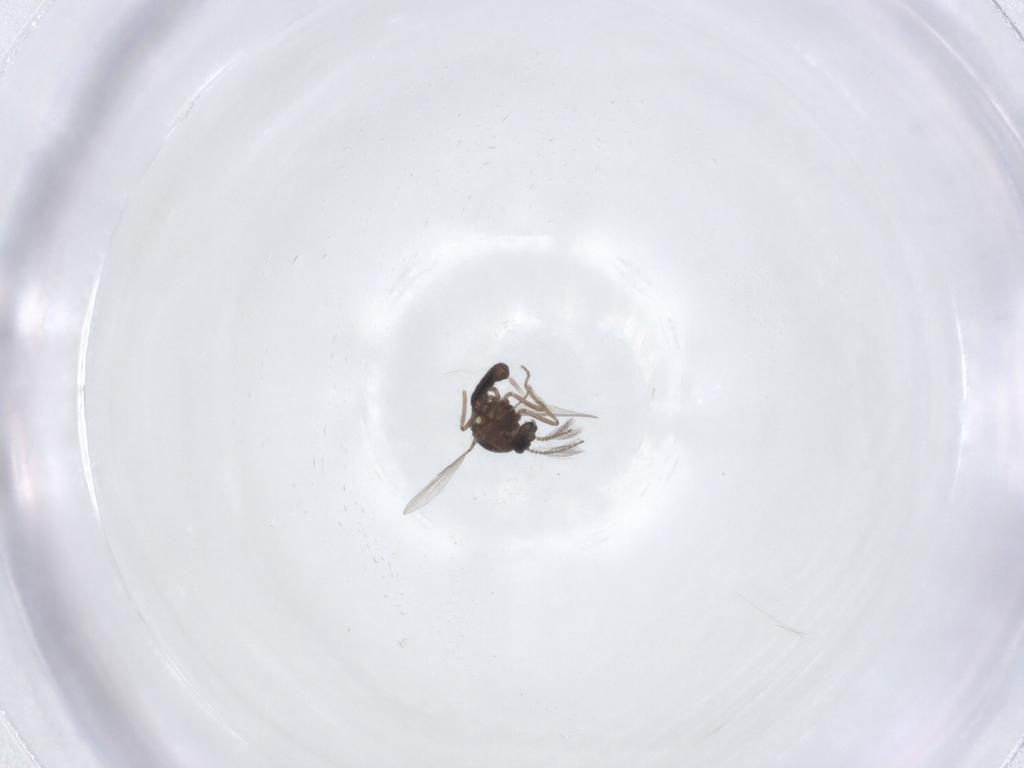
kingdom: Animalia
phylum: Arthropoda
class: Insecta
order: Diptera
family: Ceratopogonidae
